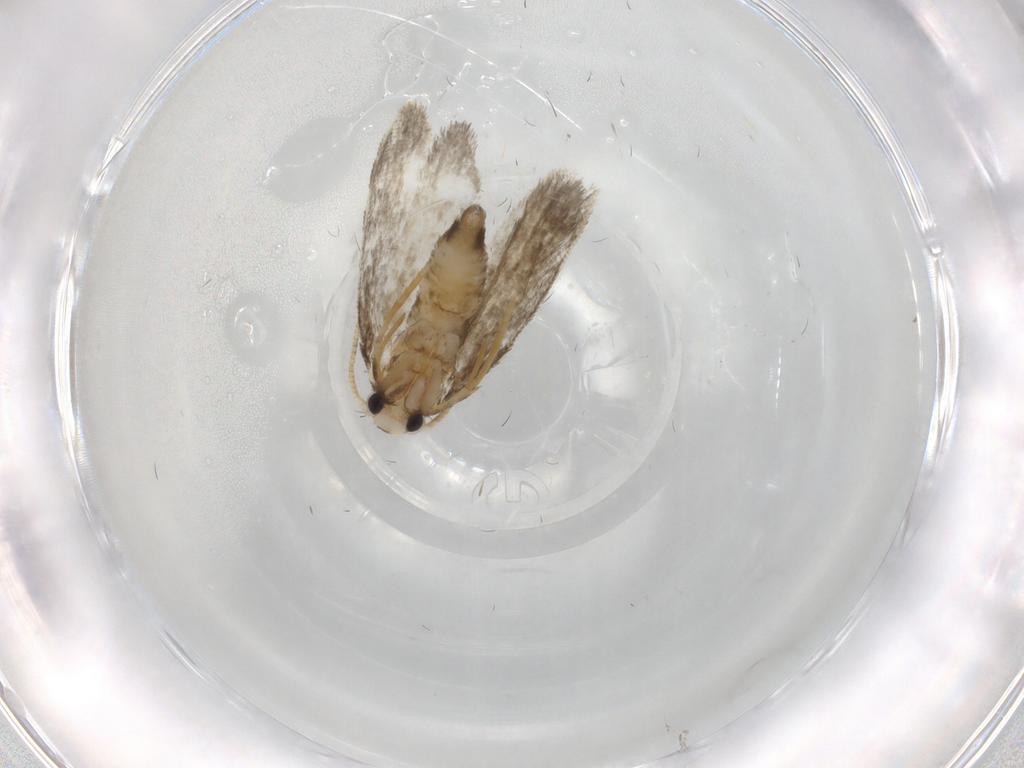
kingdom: Animalia
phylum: Arthropoda
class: Insecta
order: Lepidoptera
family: Psychidae
